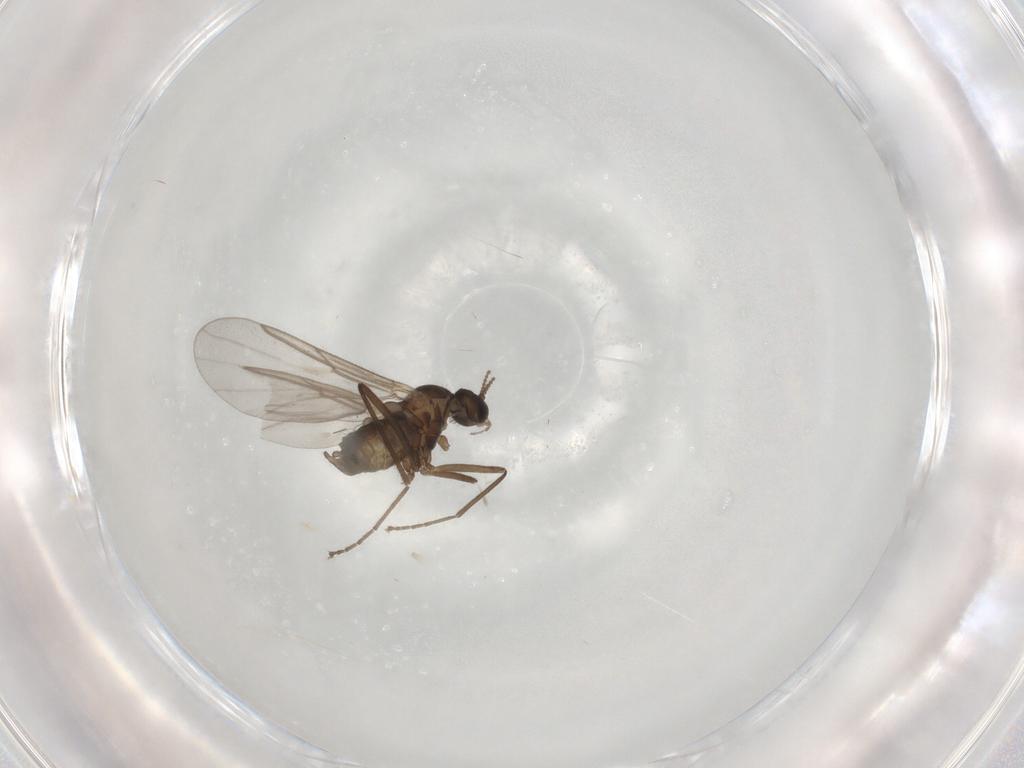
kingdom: Animalia
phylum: Arthropoda
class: Insecta
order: Diptera
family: Cecidomyiidae
